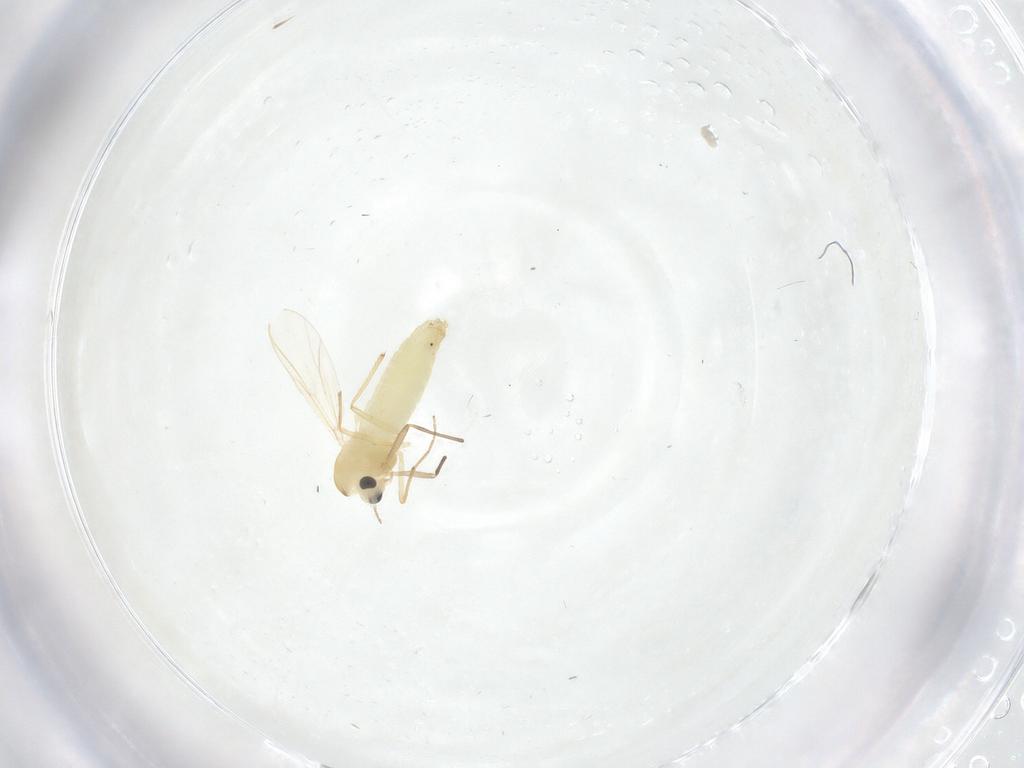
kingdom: Animalia
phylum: Arthropoda
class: Insecta
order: Diptera
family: Chironomidae
